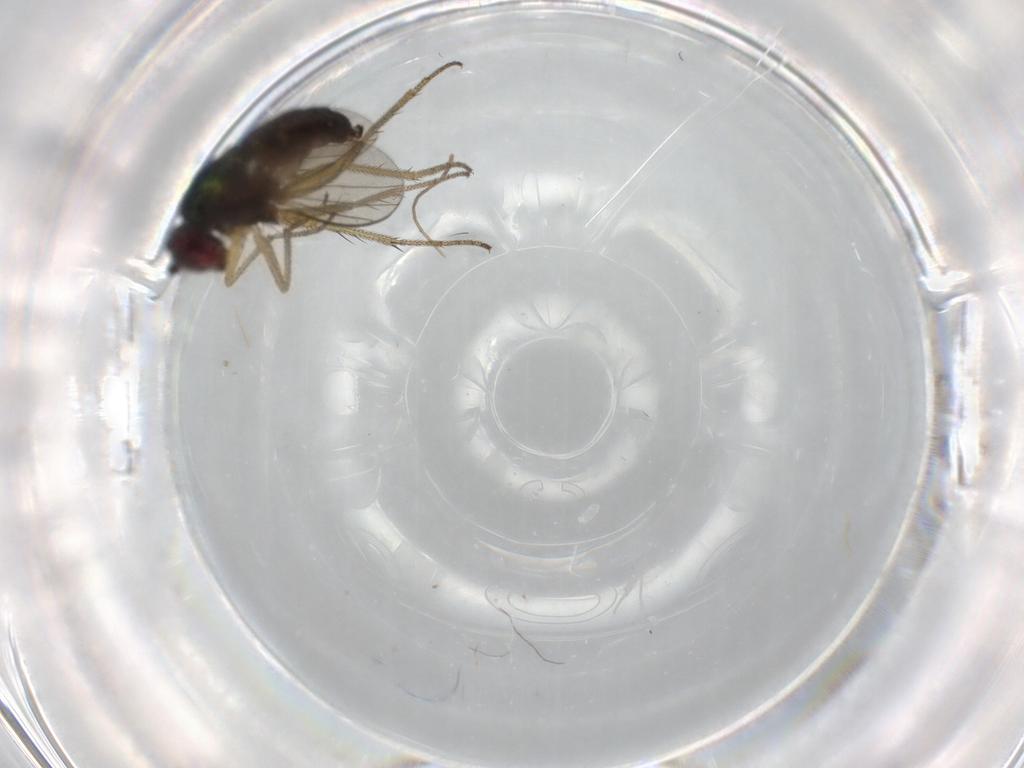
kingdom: Animalia
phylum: Arthropoda
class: Insecta
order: Diptera
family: Dolichopodidae
